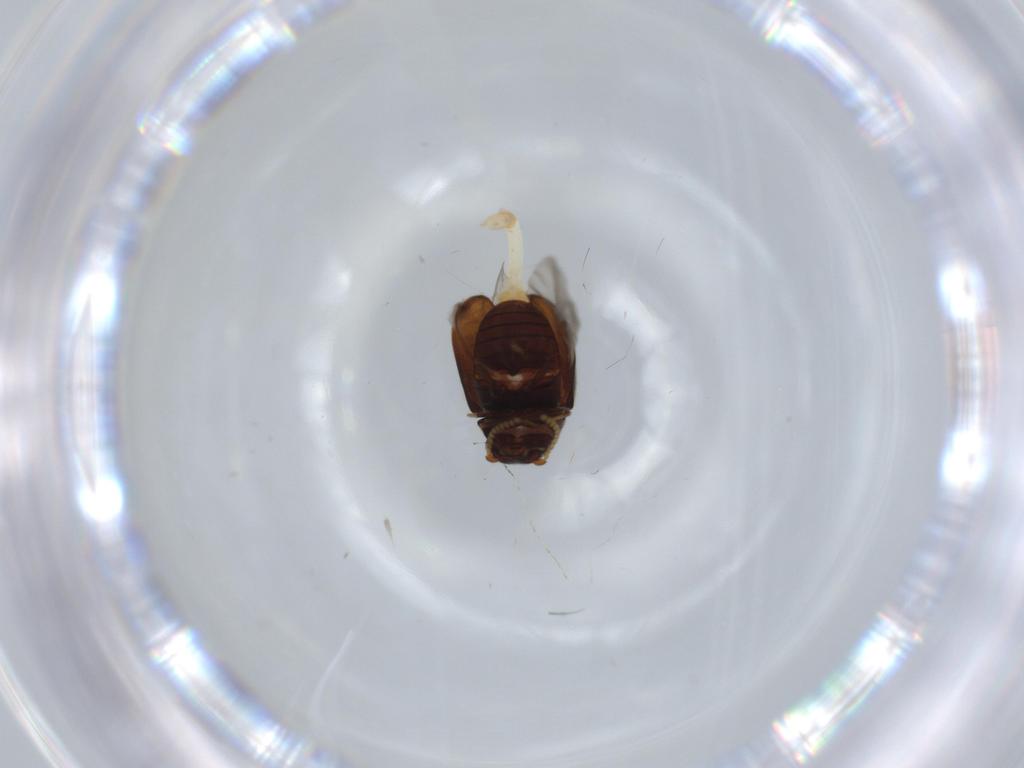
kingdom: Animalia
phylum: Arthropoda
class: Insecta
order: Coleoptera
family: Ptinidae
